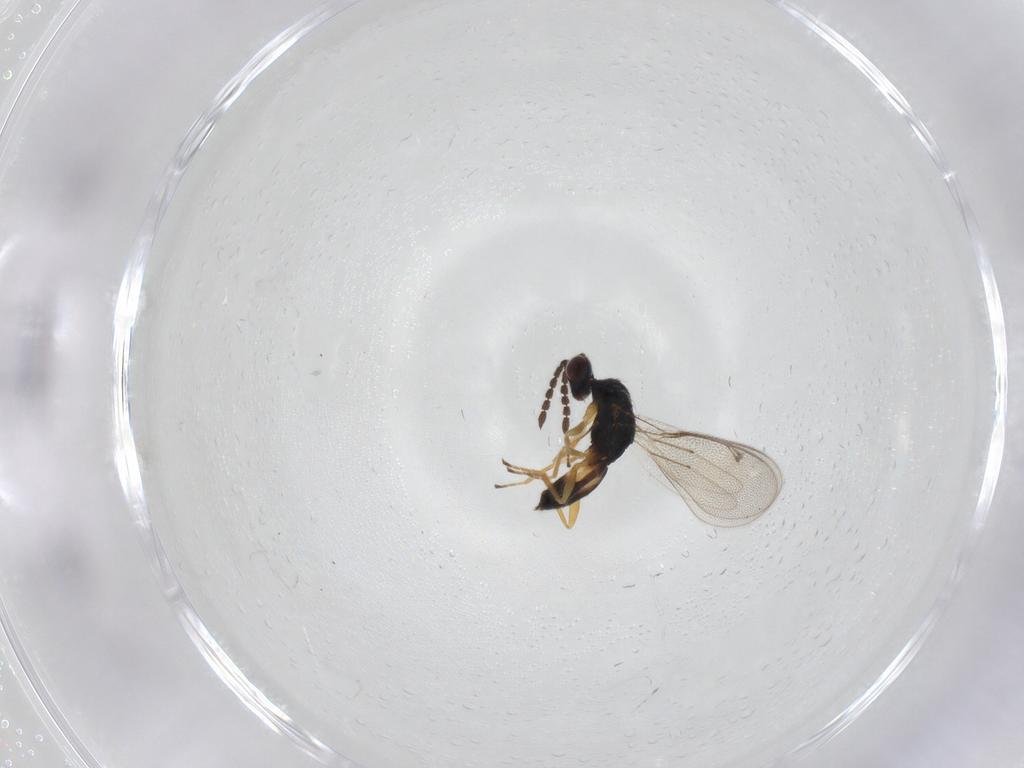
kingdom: Animalia
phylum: Arthropoda
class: Insecta
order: Hymenoptera
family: Eulophidae
